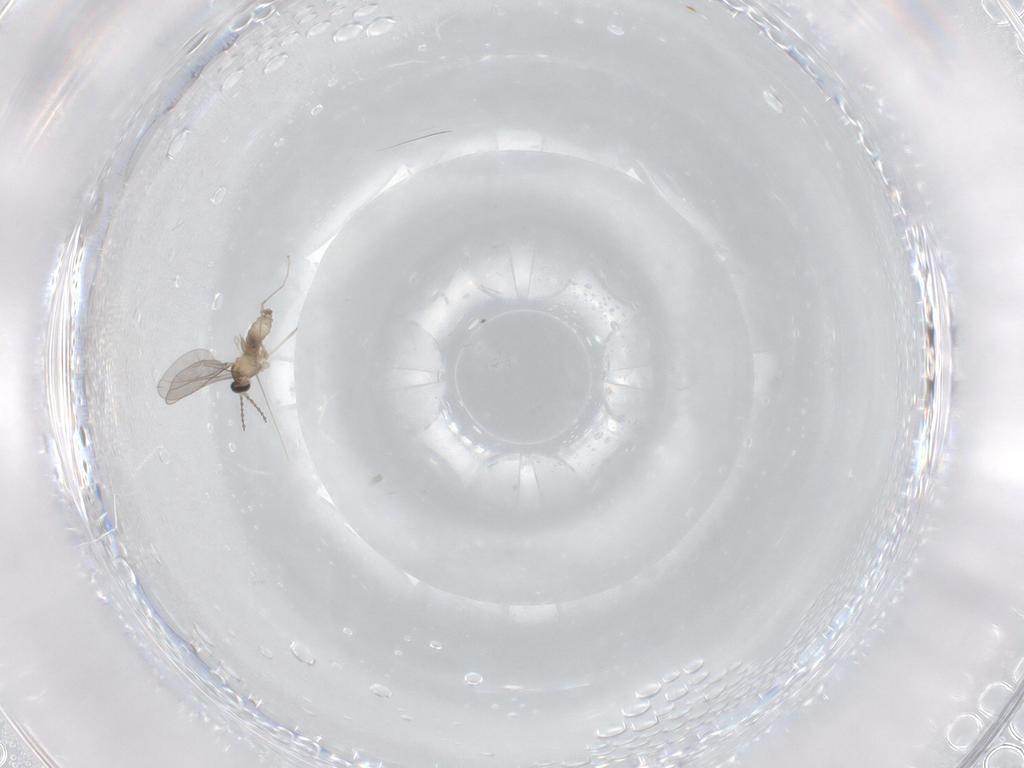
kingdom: Animalia
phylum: Arthropoda
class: Insecta
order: Diptera
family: Cecidomyiidae
